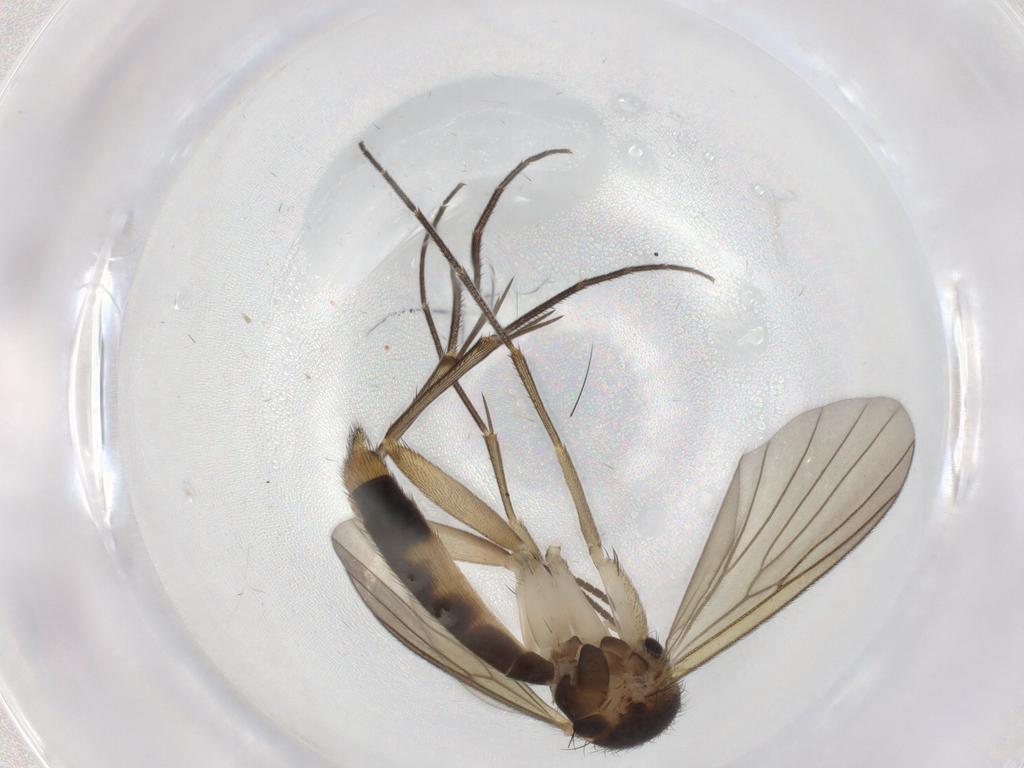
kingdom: Animalia
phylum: Arthropoda
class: Insecta
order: Diptera
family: Mycetophilidae
